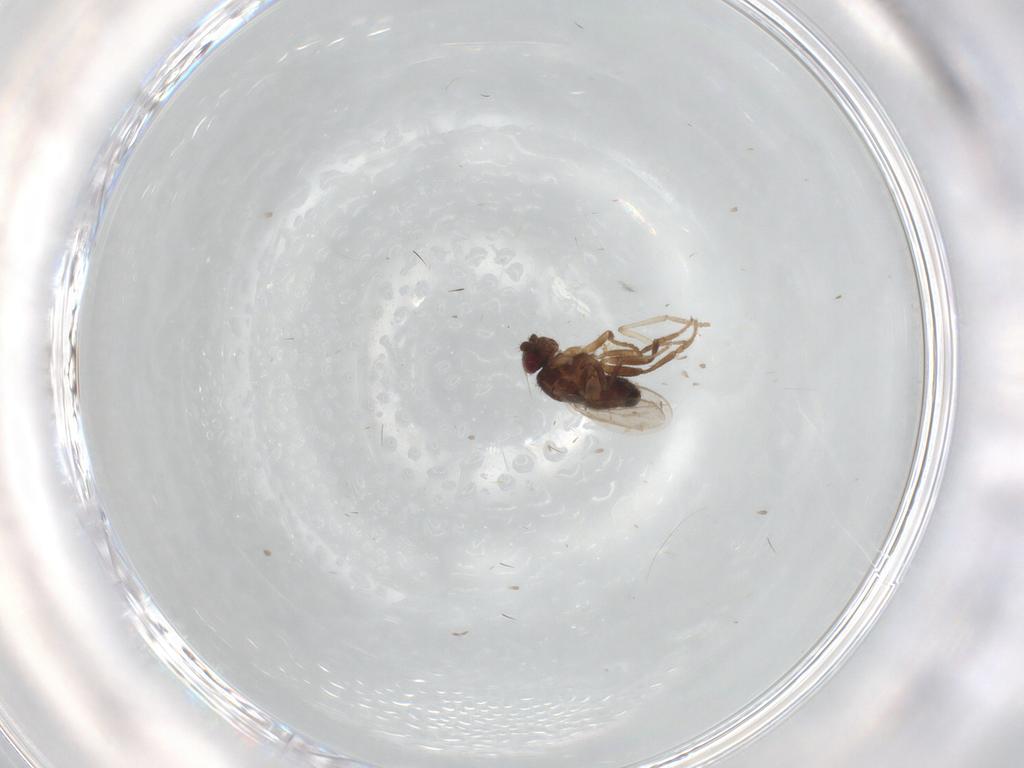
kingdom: Animalia
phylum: Arthropoda
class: Insecta
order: Diptera
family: Sphaeroceridae
